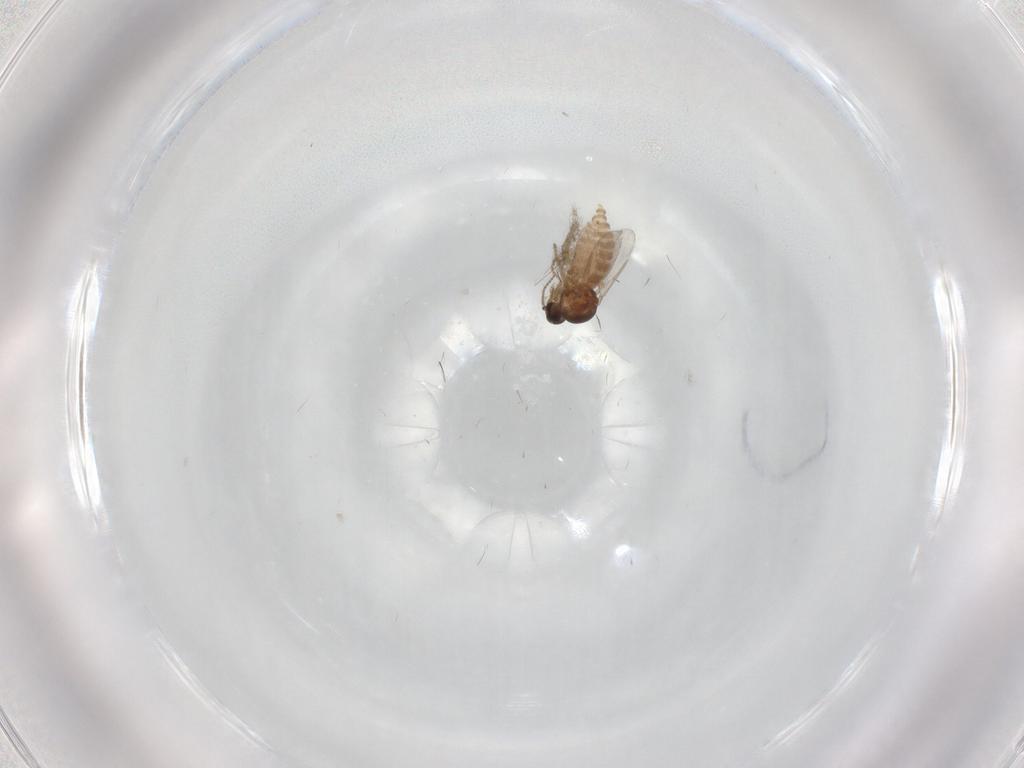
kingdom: Animalia
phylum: Arthropoda
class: Insecta
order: Diptera
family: Ceratopogonidae
